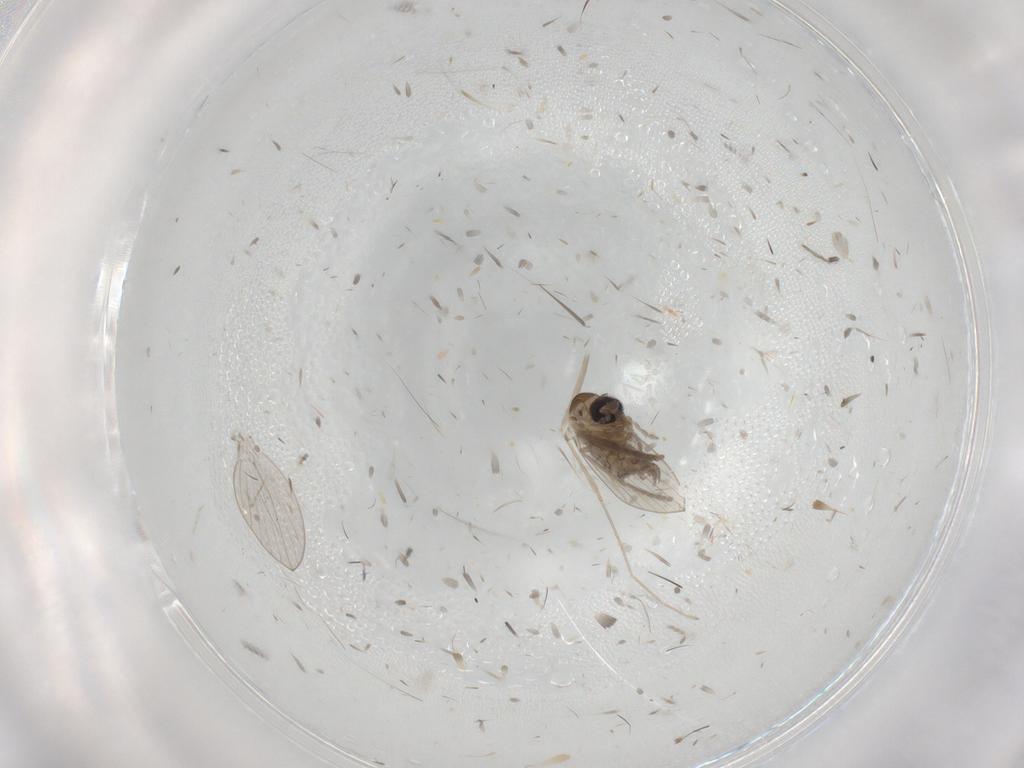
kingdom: Animalia
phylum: Arthropoda
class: Insecta
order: Diptera
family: Psychodidae
